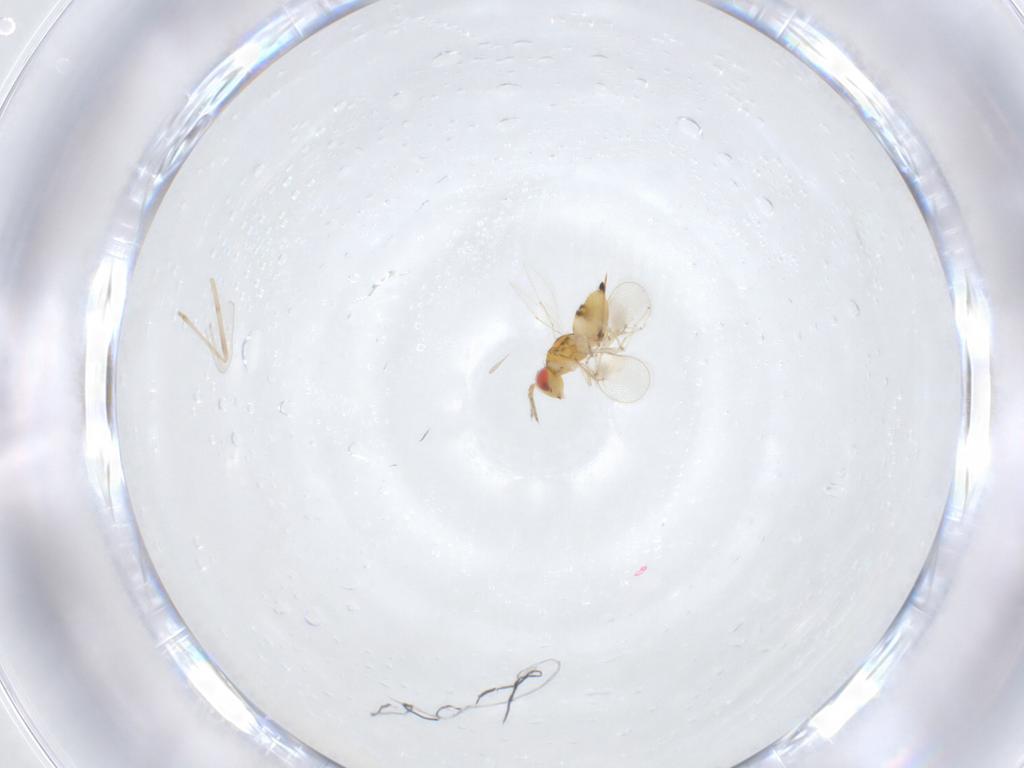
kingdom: Animalia
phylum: Arthropoda
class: Insecta
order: Hymenoptera
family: Eulophidae
